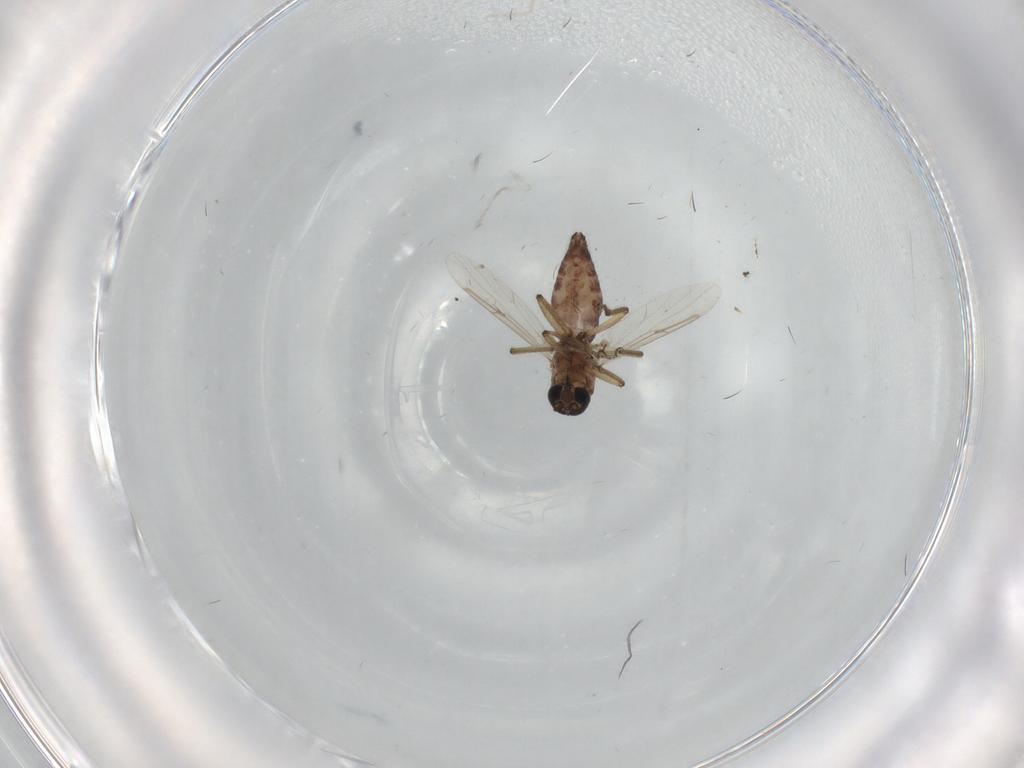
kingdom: Animalia
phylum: Arthropoda
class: Insecta
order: Diptera
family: Ceratopogonidae
